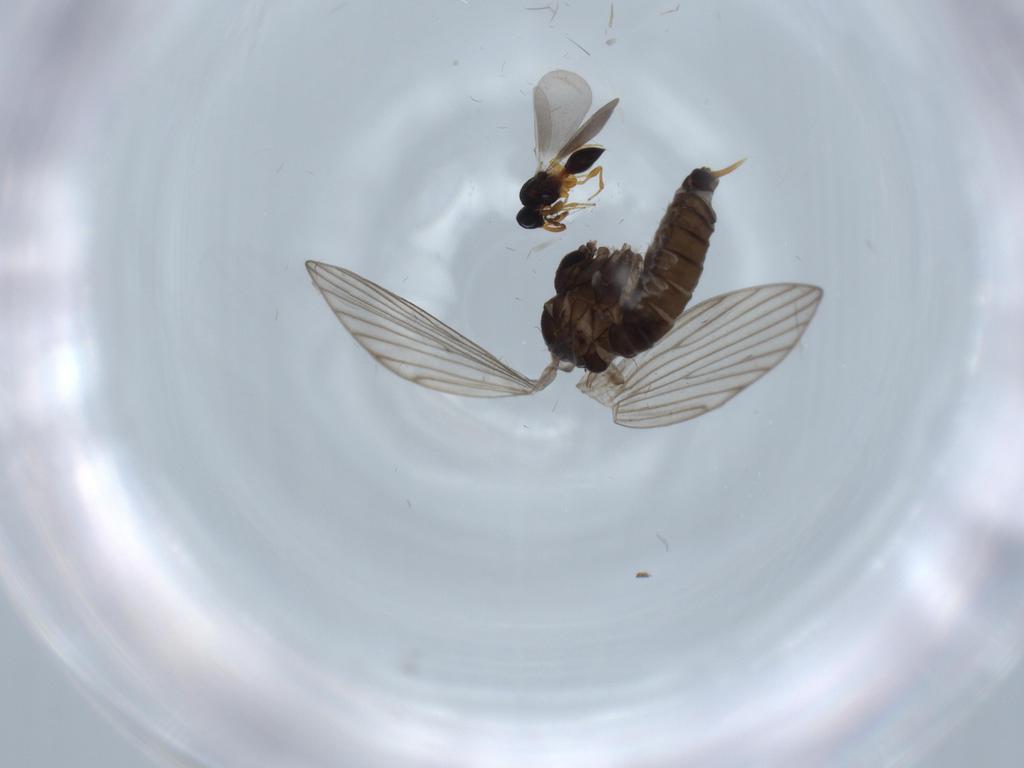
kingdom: Animalia
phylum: Arthropoda
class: Insecta
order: Diptera
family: Psychodidae
